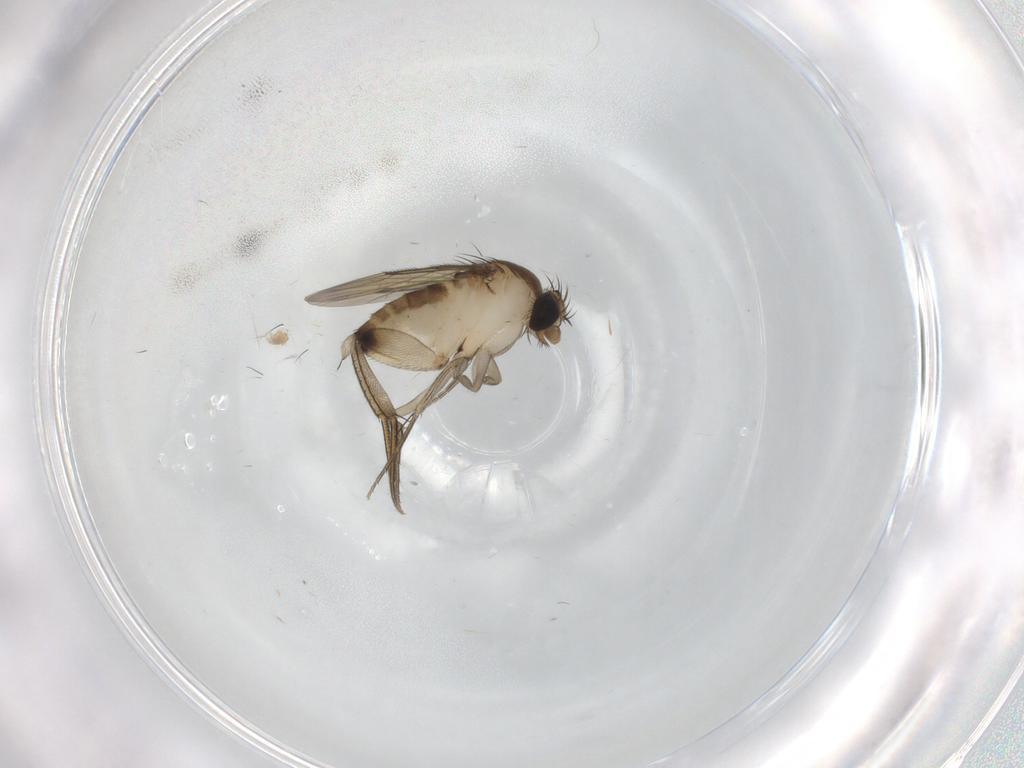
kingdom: Animalia
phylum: Arthropoda
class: Insecta
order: Diptera
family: Phoridae
